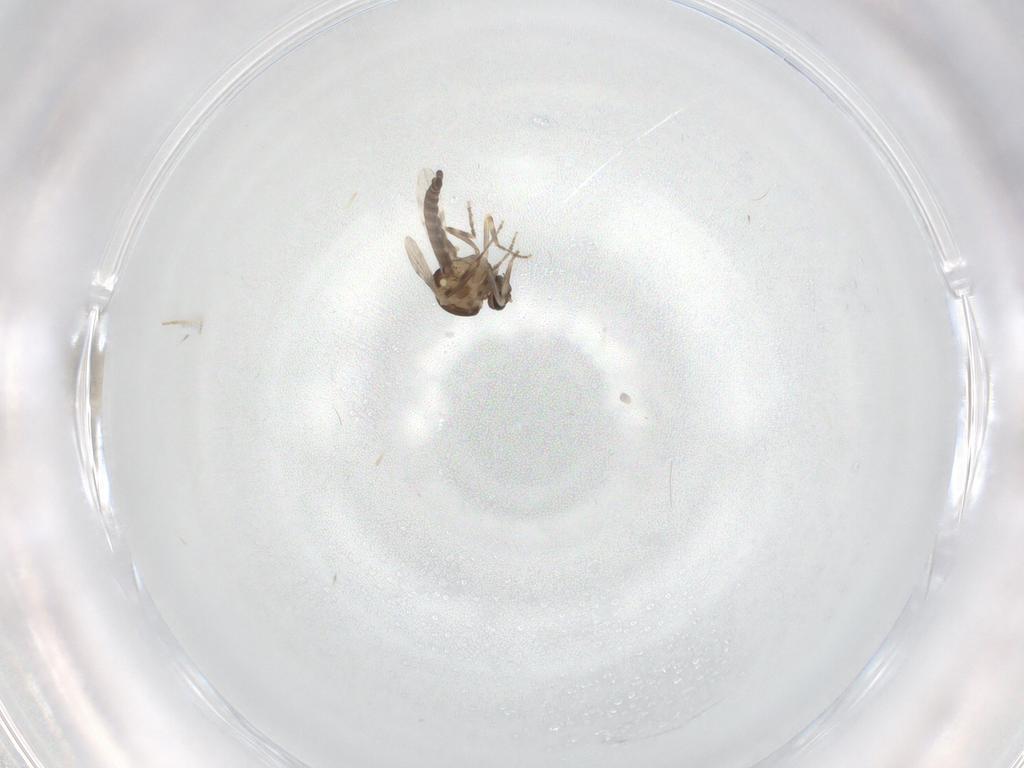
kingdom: Animalia
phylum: Arthropoda
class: Insecta
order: Diptera
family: Ceratopogonidae
